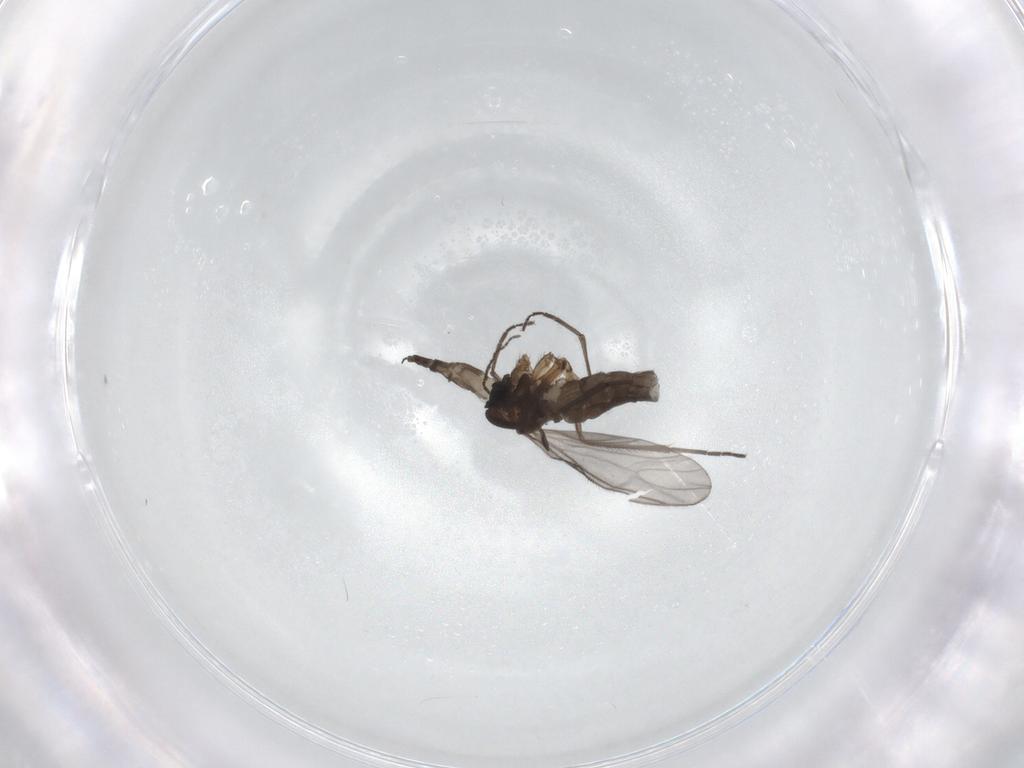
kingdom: Animalia
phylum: Arthropoda
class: Insecta
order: Diptera
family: Sciaridae
